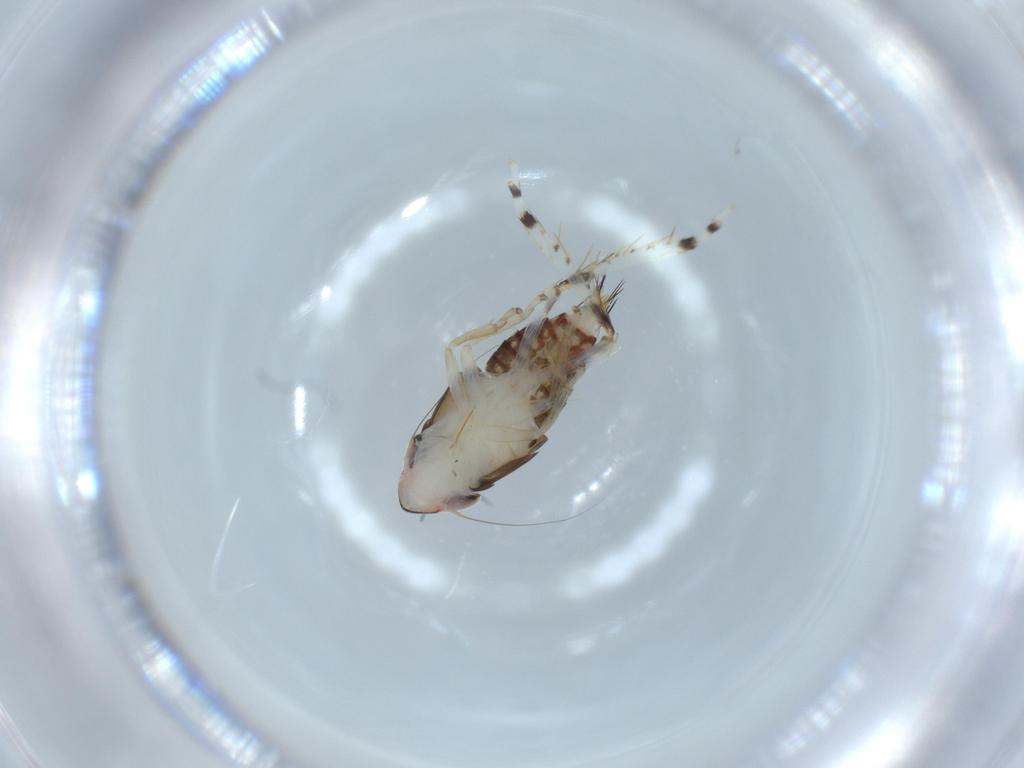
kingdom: Animalia
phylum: Arthropoda
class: Insecta
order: Hemiptera
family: Cicadellidae
